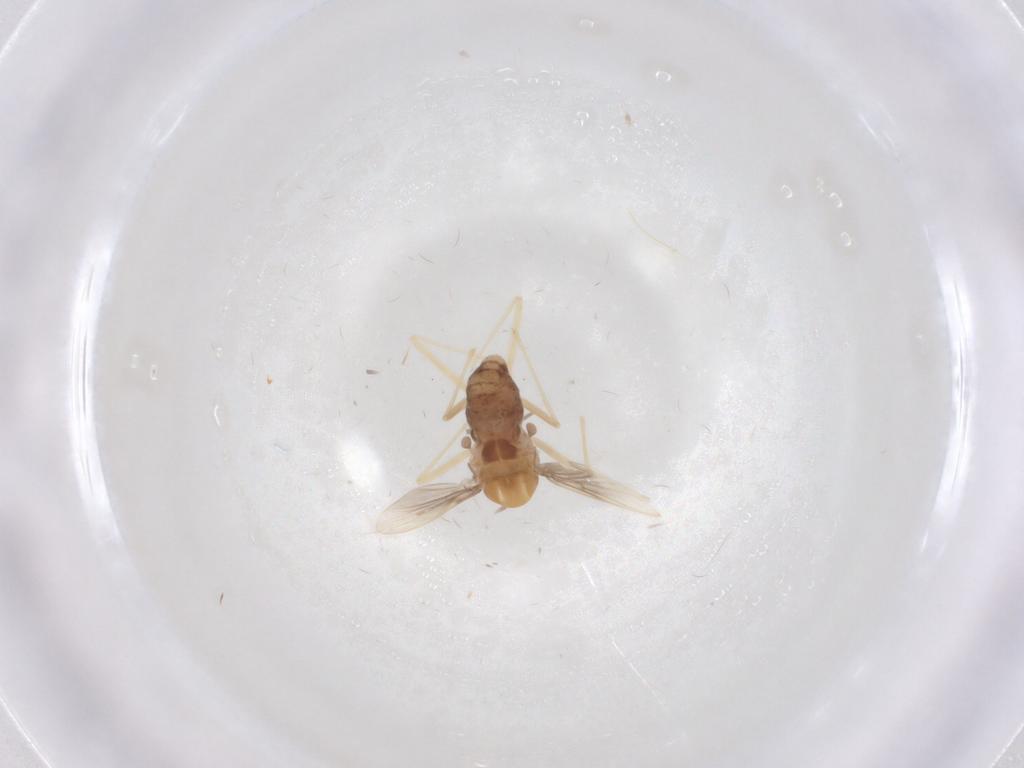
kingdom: Animalia
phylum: Arthropoda
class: Insecta
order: Diptera
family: Chironomidae
